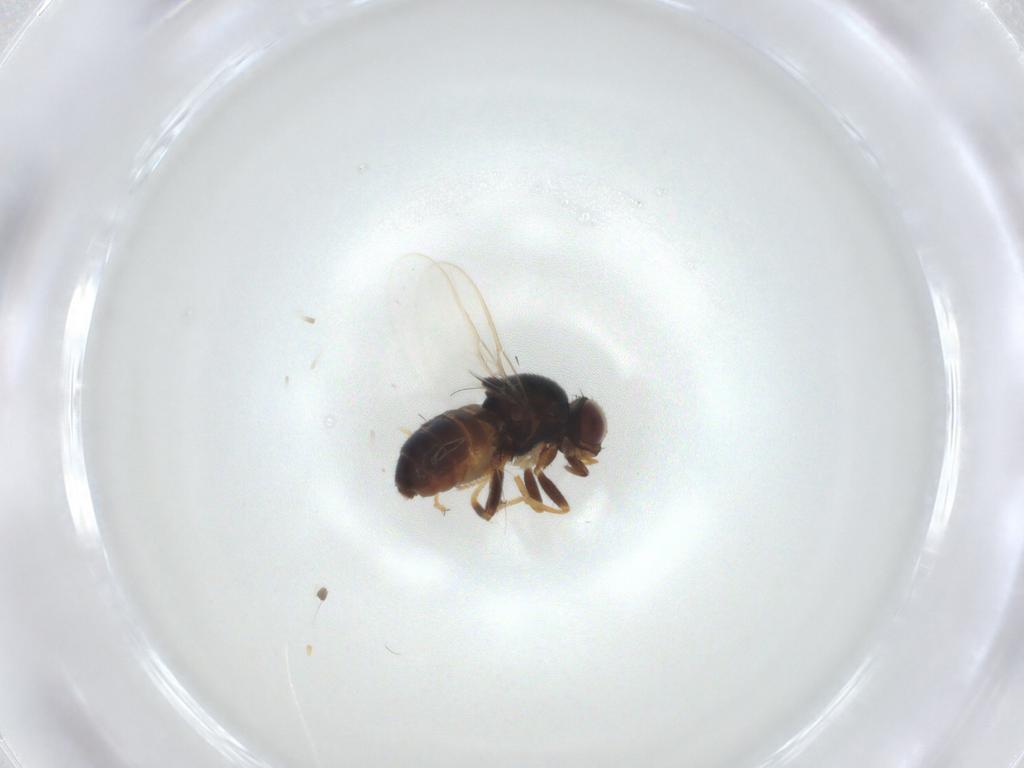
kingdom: Animalia
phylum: Arthropoda
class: Insecta
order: Diptera
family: Chloropidae
